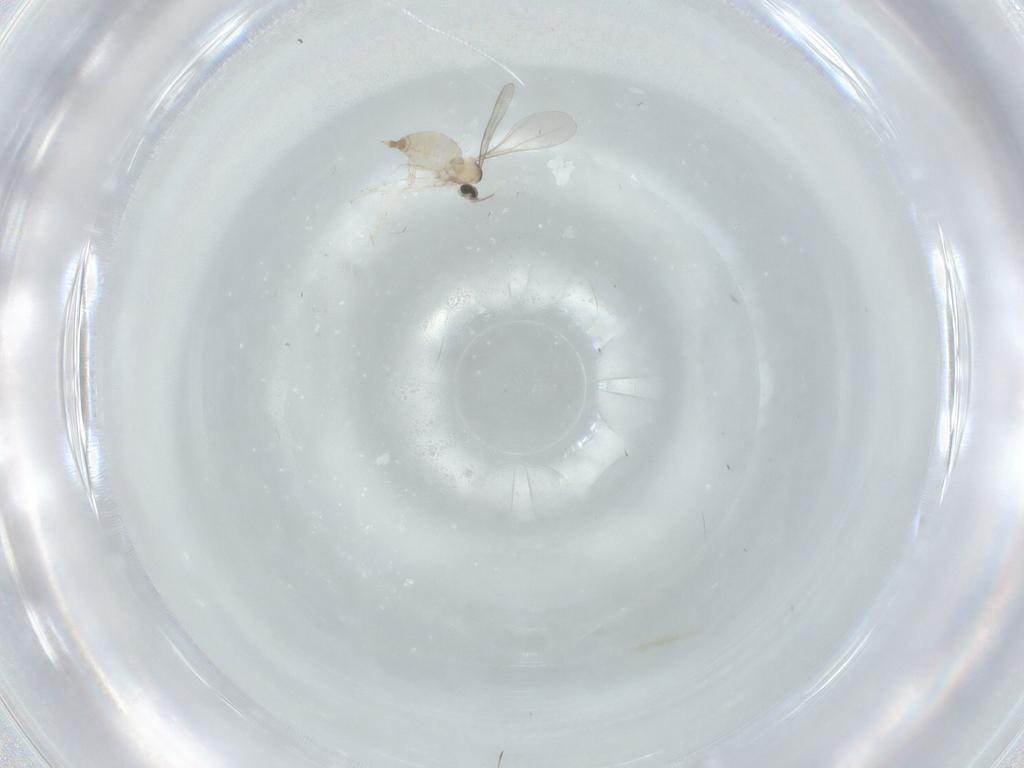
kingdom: Animalia
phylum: Arthropoda
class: Insecta
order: Diptera
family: Cecidomyiidae
